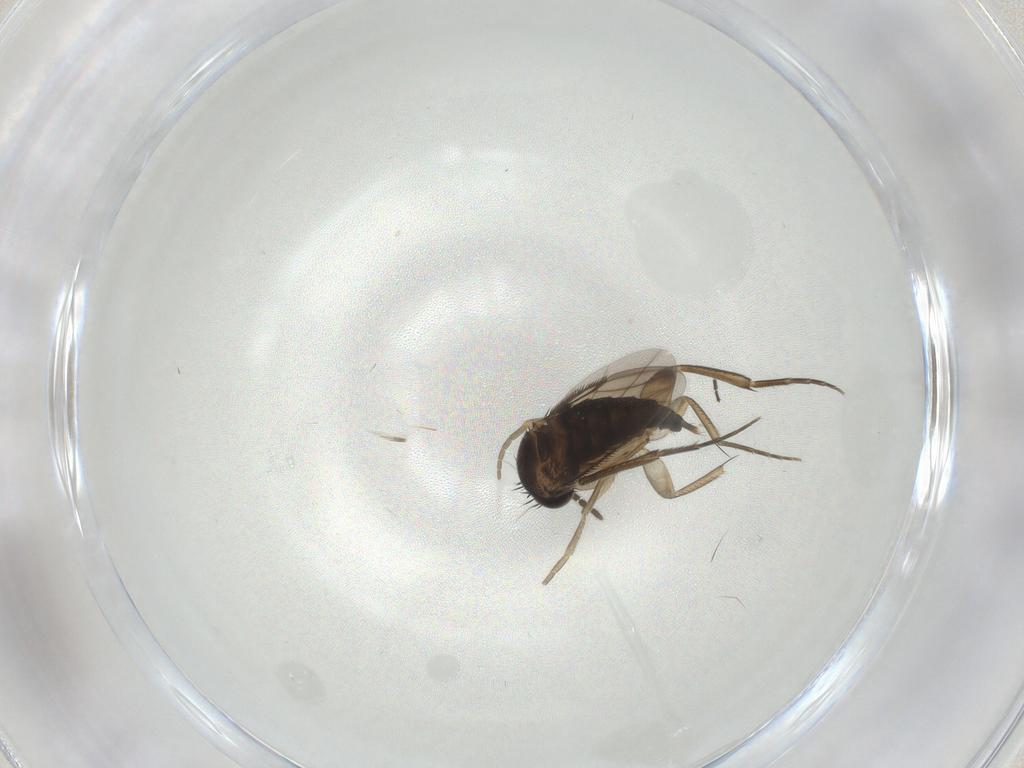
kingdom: Animalia
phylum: Arthropoda
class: Insecta
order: Diptera
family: Phoridae
